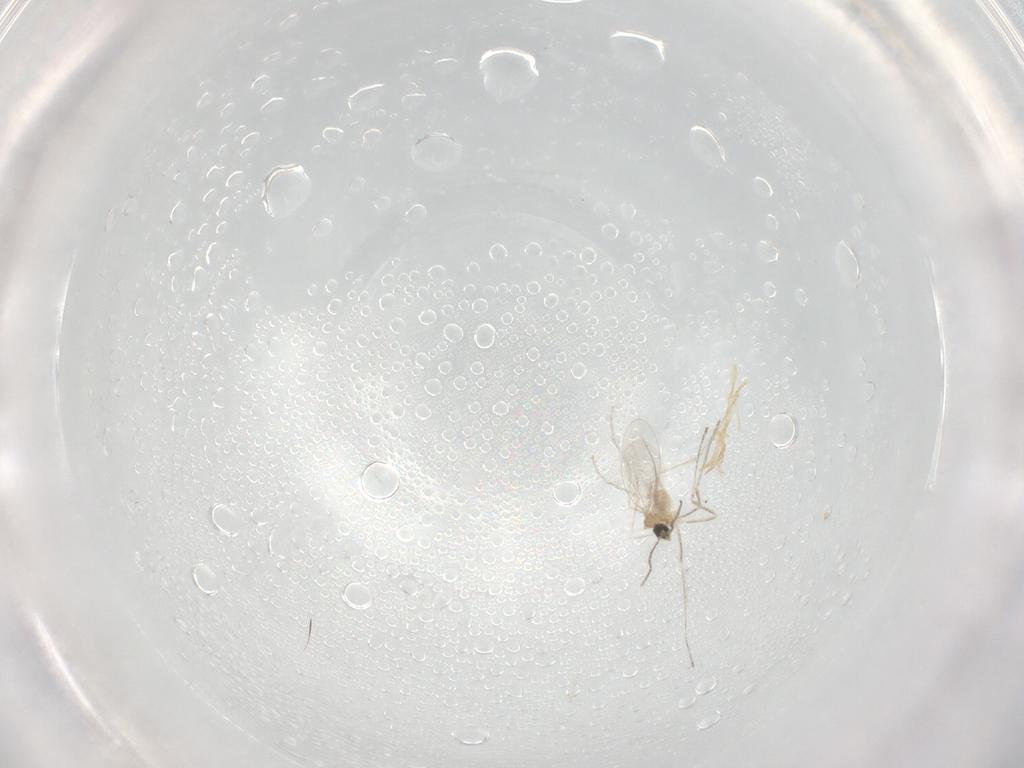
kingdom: Animalia
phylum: Arthropoda
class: Insecta
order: Diptera
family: Cecidomyiidae
